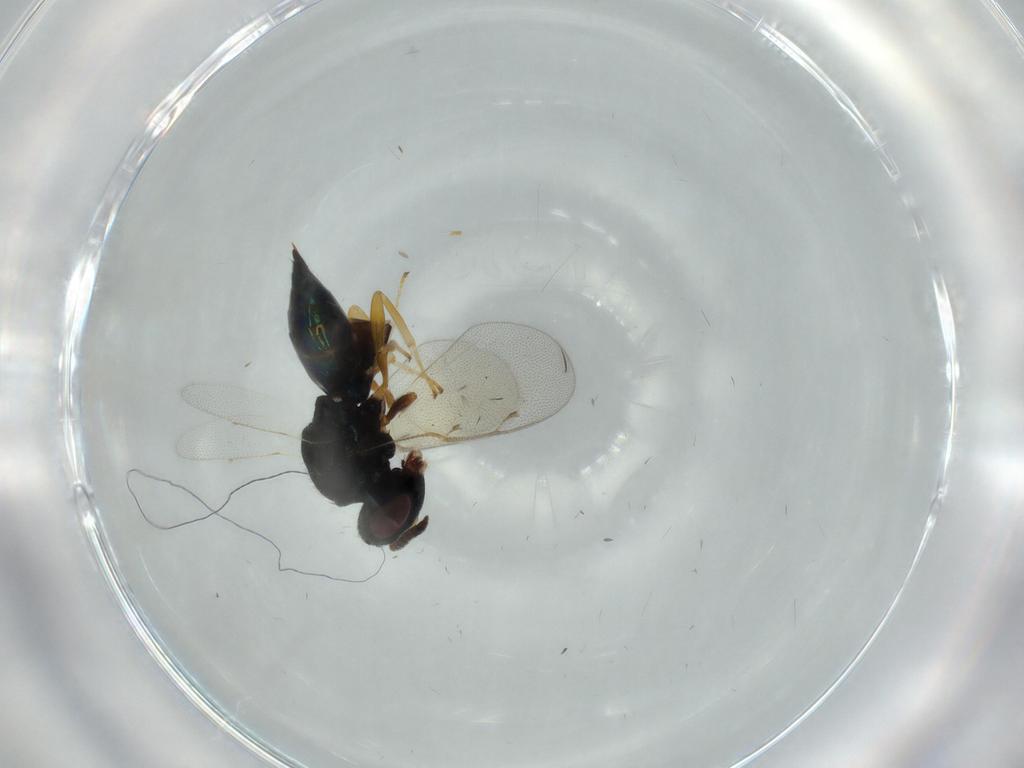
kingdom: Animalia
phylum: Arthropoda
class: Insecta
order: Hymenoptera
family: Pteromalidae
